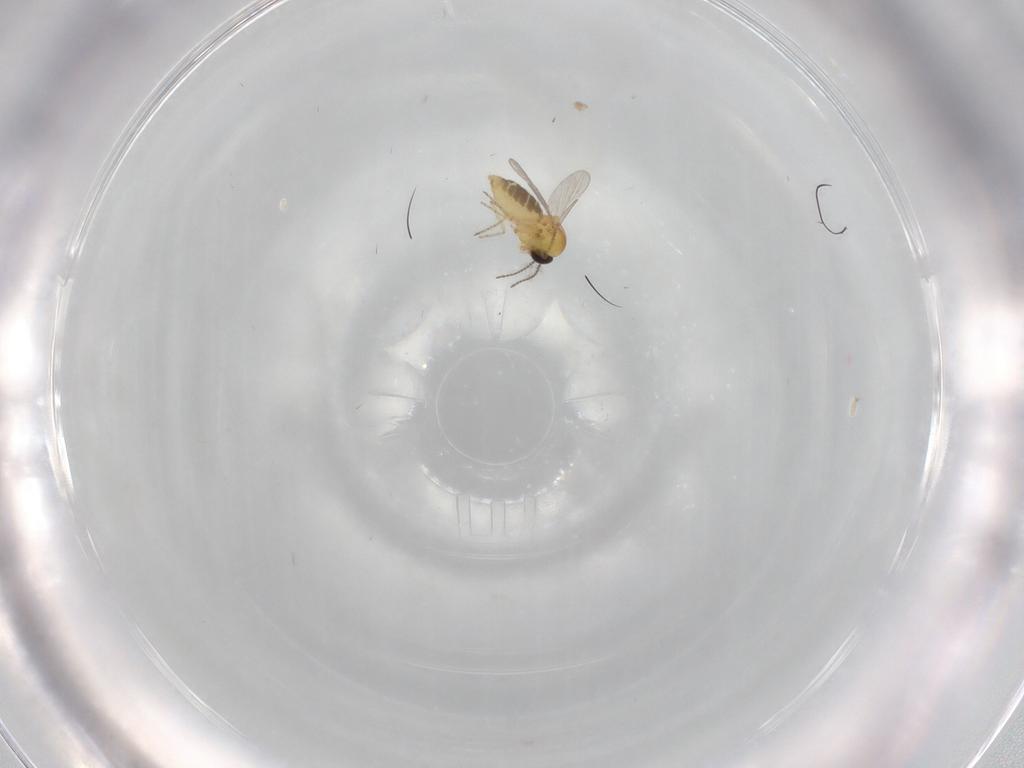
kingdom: Animalia
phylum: Arthropoda
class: Insecta
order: Diptera
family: Ceratopogonidae
